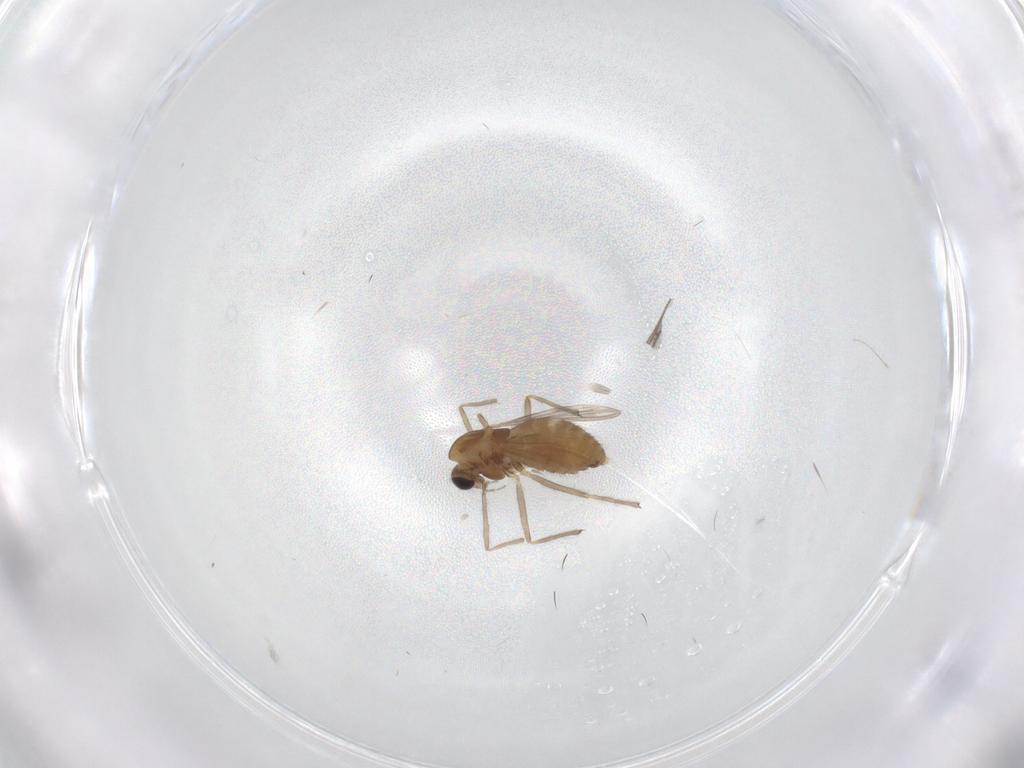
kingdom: Animalia
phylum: Arthropoda
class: Insecta
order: Diptera
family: Chironomidae
